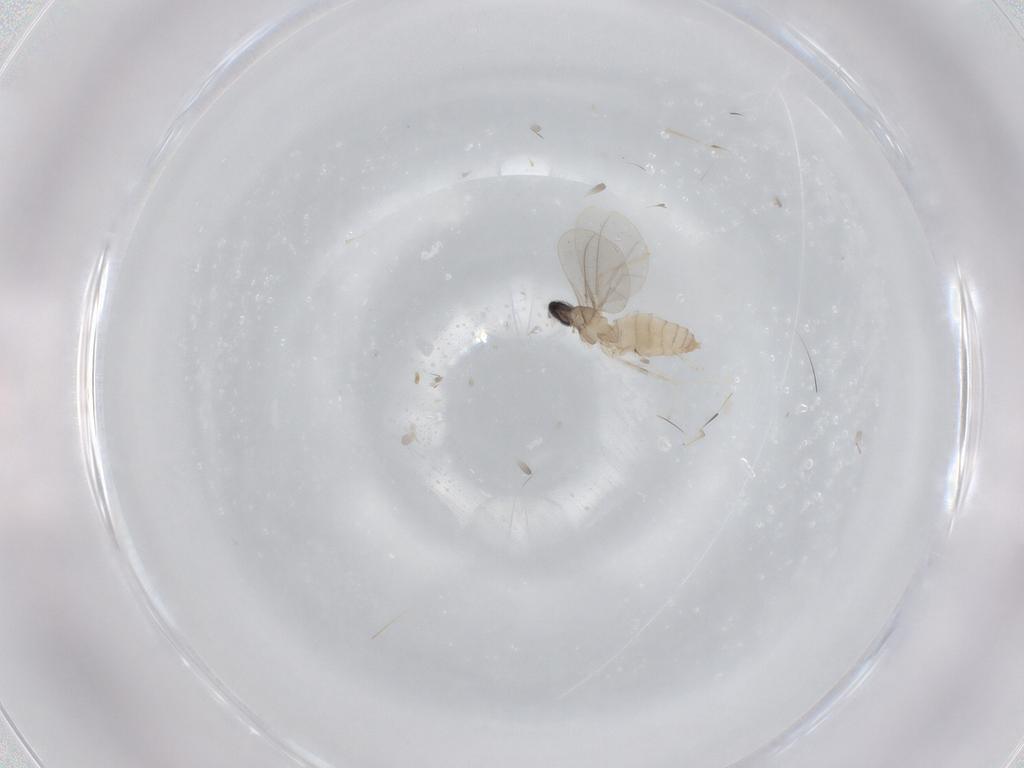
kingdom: Animalia
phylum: Arthropoda
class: Insecta
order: Diptera
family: Cecidomyiidae
